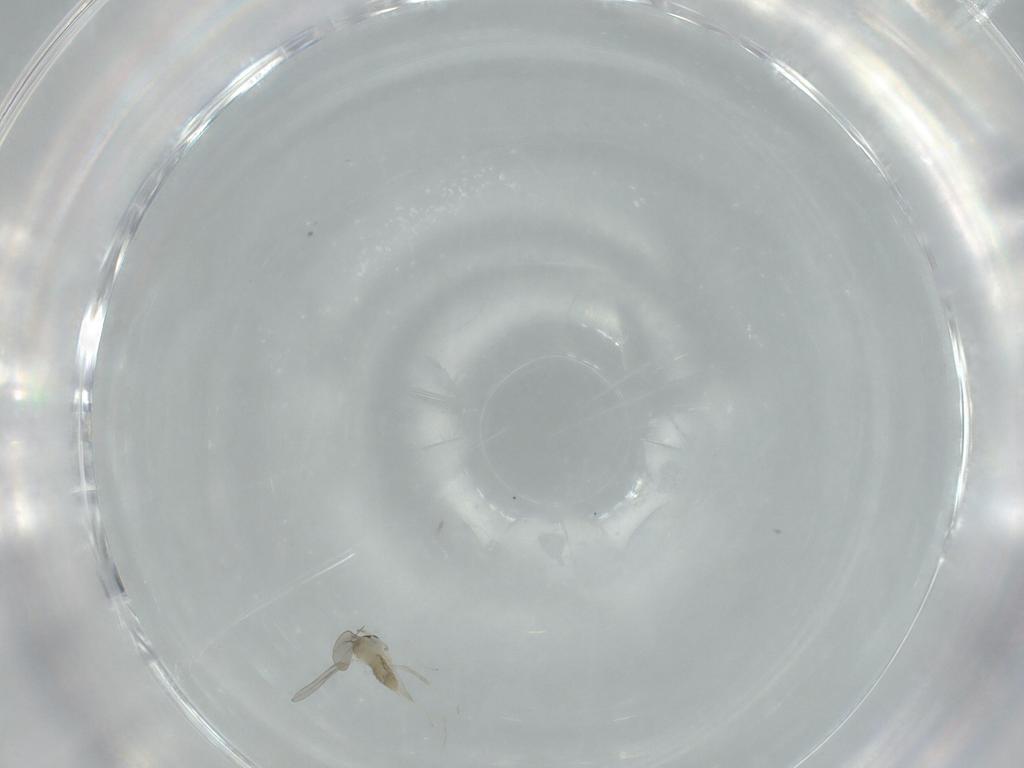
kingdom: Animalia
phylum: Arthropoda
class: Insecta
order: Diptera
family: Cecidomyiidae
